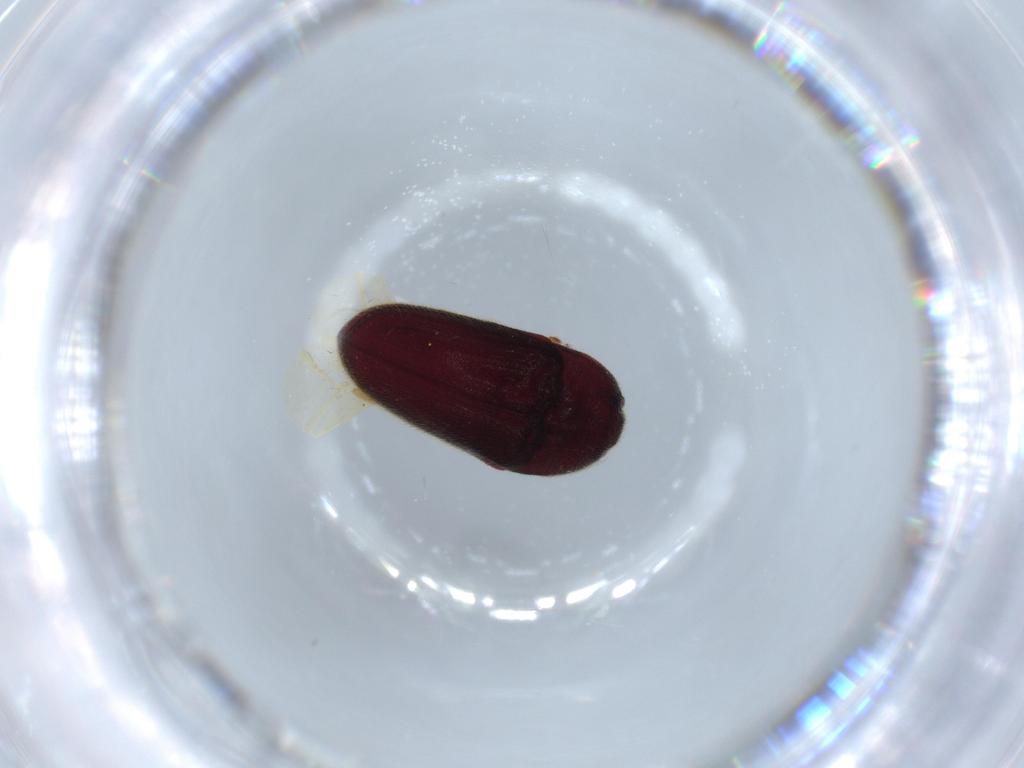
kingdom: Animalia
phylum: Arthropoda
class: Insecta
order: Coleoptera
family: Throscidae
